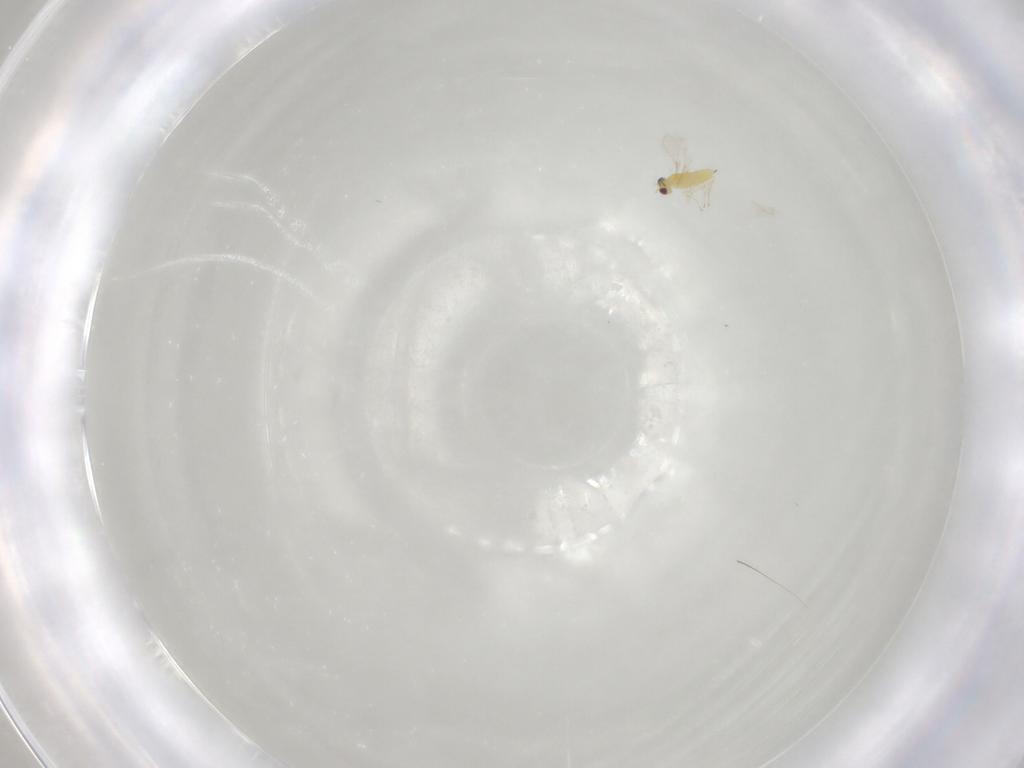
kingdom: Animalia
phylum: Arthropoda
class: Insecta
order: Hymenoptera
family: Mymaridae
